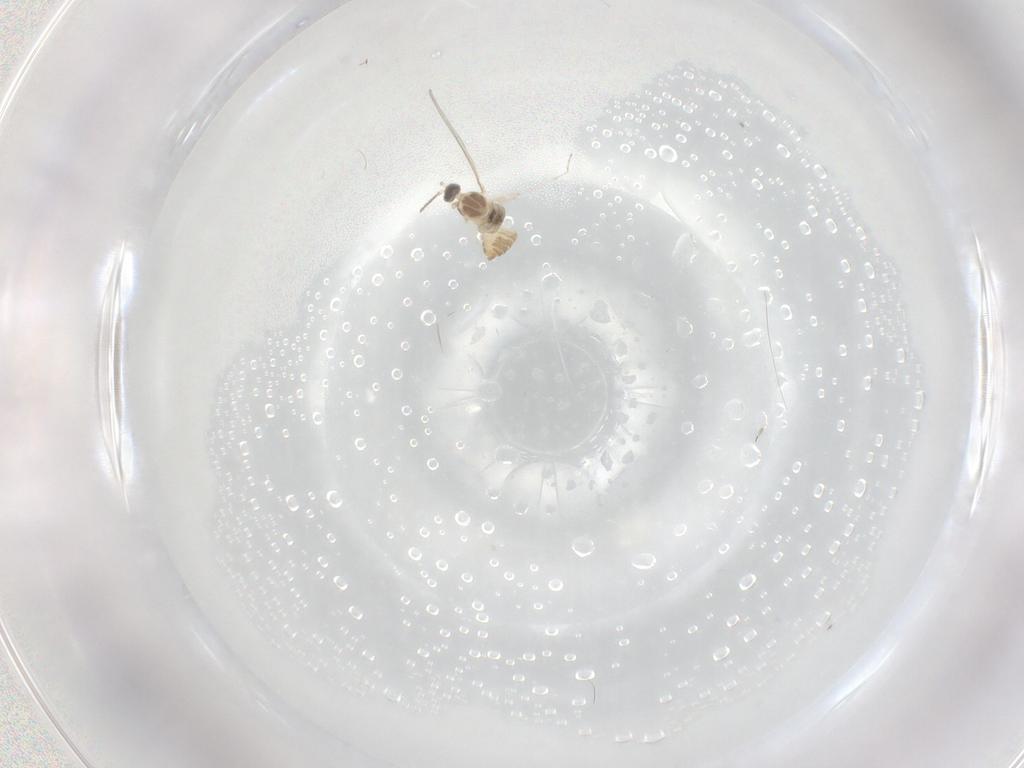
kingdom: Animalia
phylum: Arthropoda
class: Insecta
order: Diptera
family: Cecidomyiidae
